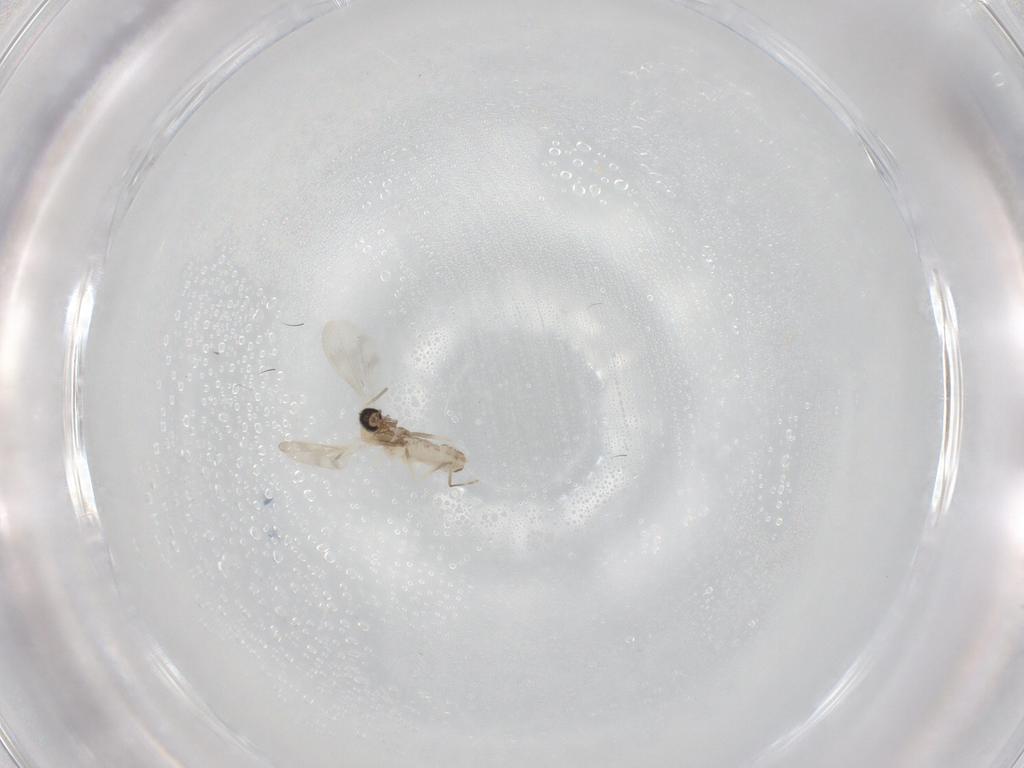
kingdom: Animalia
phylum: Arthropoda
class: Insecta
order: Diptera
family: Cecidomyiidae
